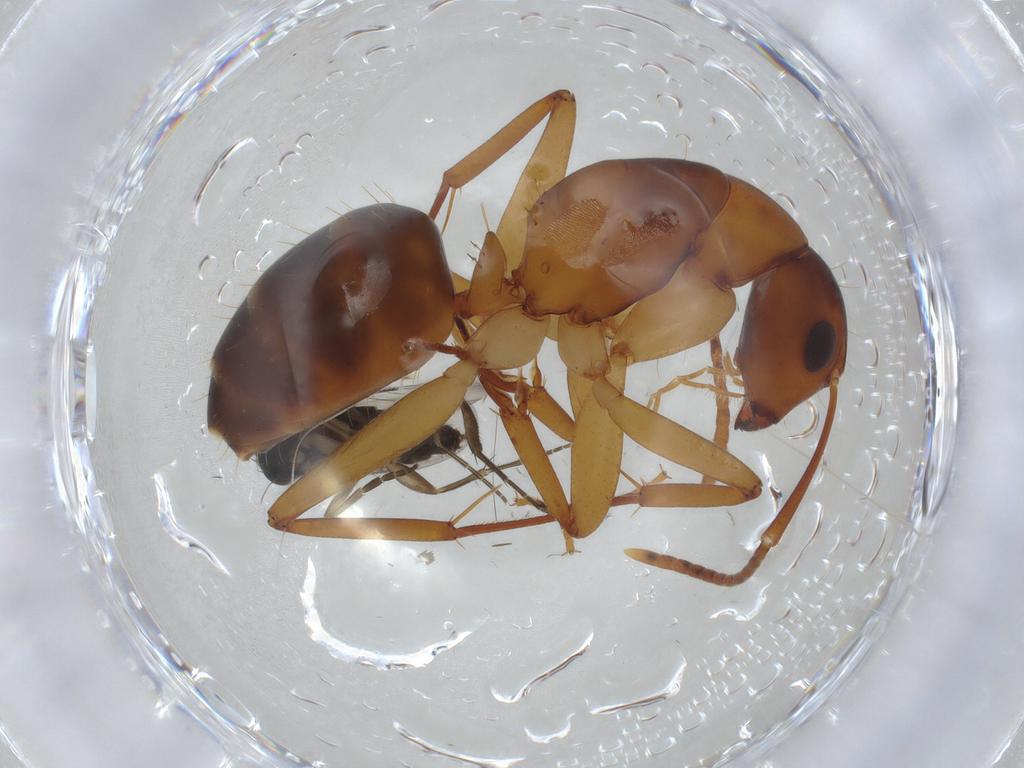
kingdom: Animalia
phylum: Arthropoda
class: Insecta
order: Hymenoptera
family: Formicidae
